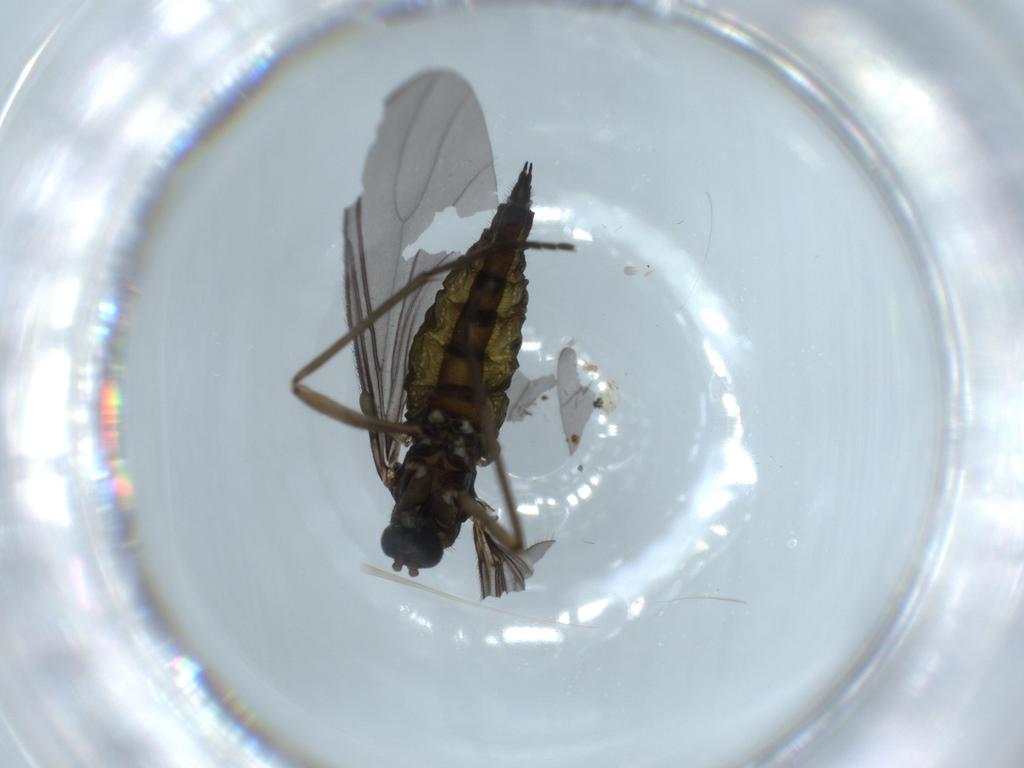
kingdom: Animalia
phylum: Arthropoda
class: Insecta
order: Diptera
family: Sciaridae
